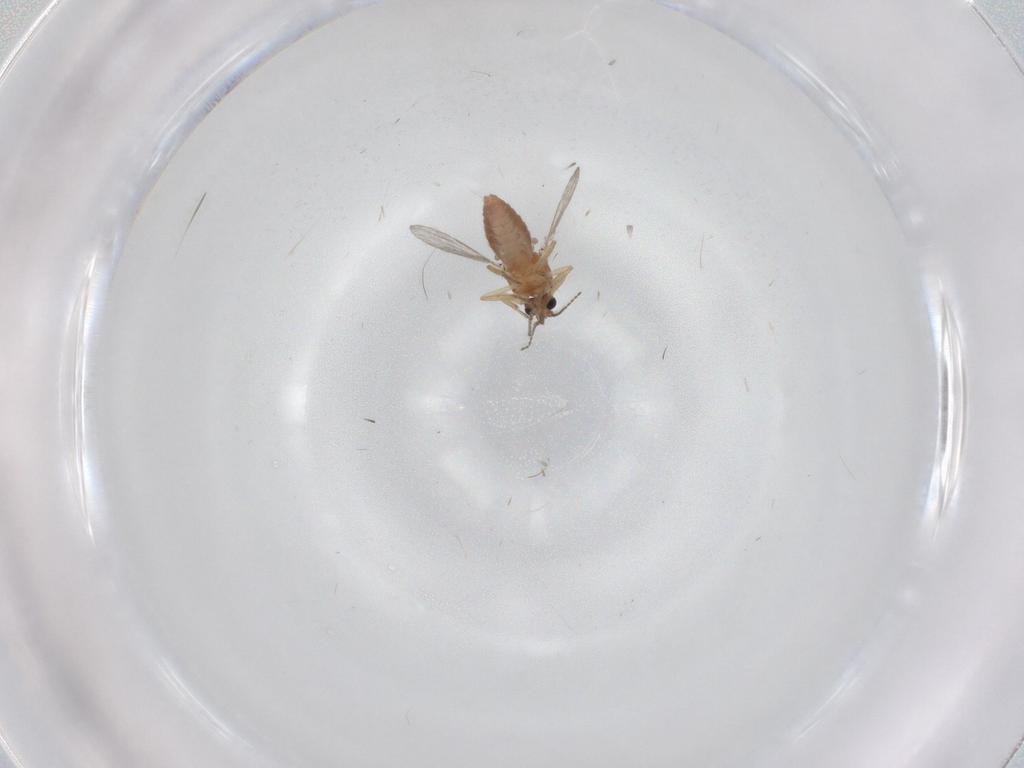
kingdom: Animalia
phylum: Arthropoda
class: Insecta
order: Diptera
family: Ceratopogonidae
